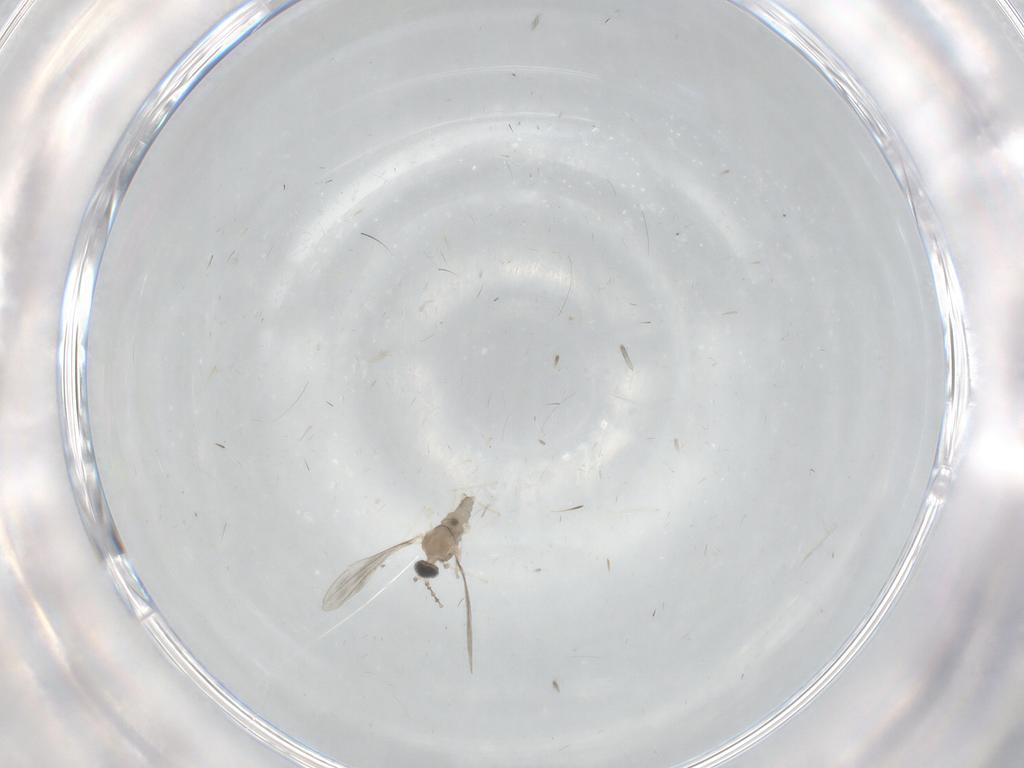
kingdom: Animalia
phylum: Arthropoda
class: Insecta
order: Diptera
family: Cecidomyiidae
